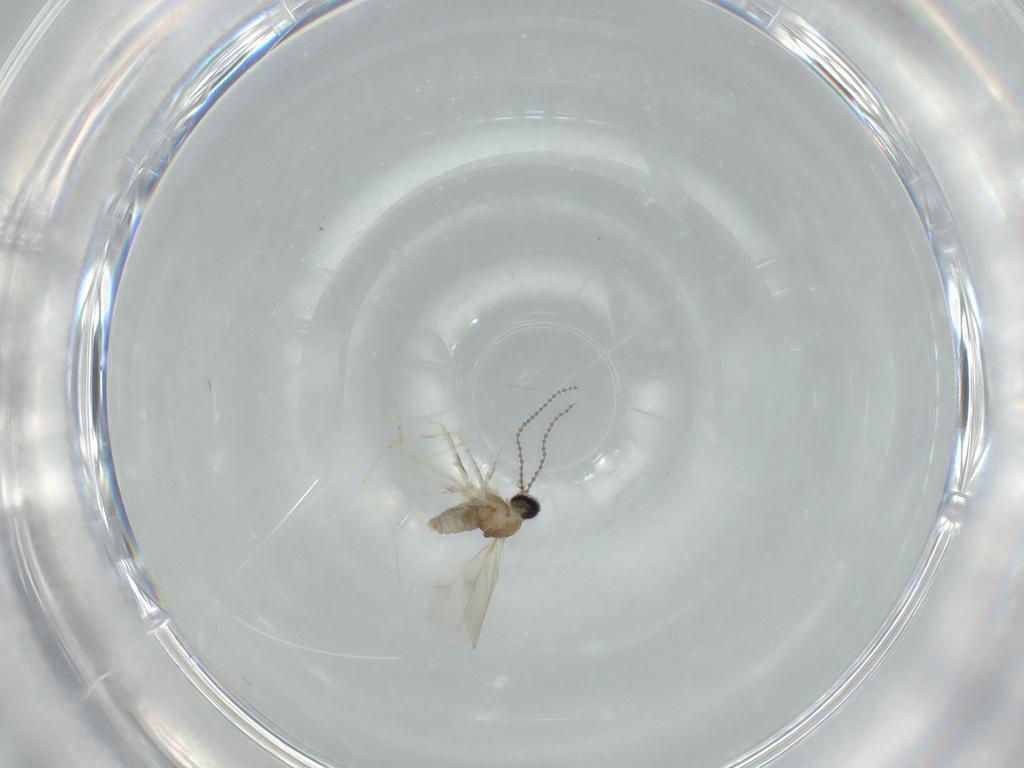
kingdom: Animalia
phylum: Arthropoda
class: Insecta
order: Diptera
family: Cecidomyiidae
